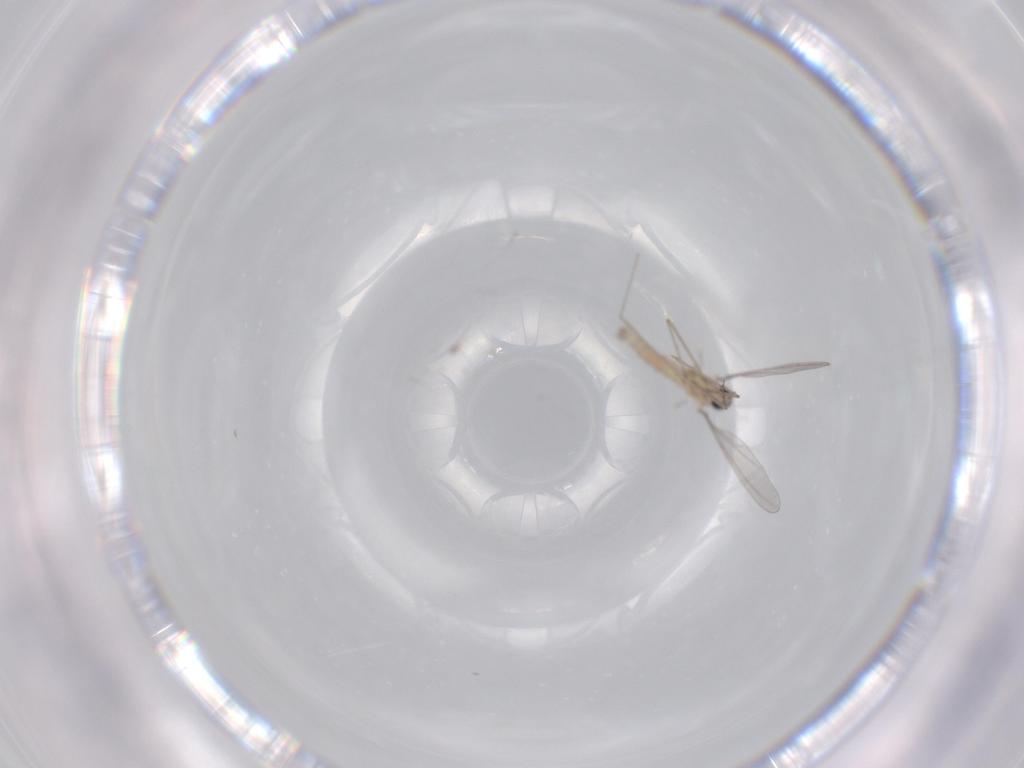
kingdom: Animalia
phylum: Arthropoda
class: Insecta
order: Diptera
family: Cecidomyiidae
